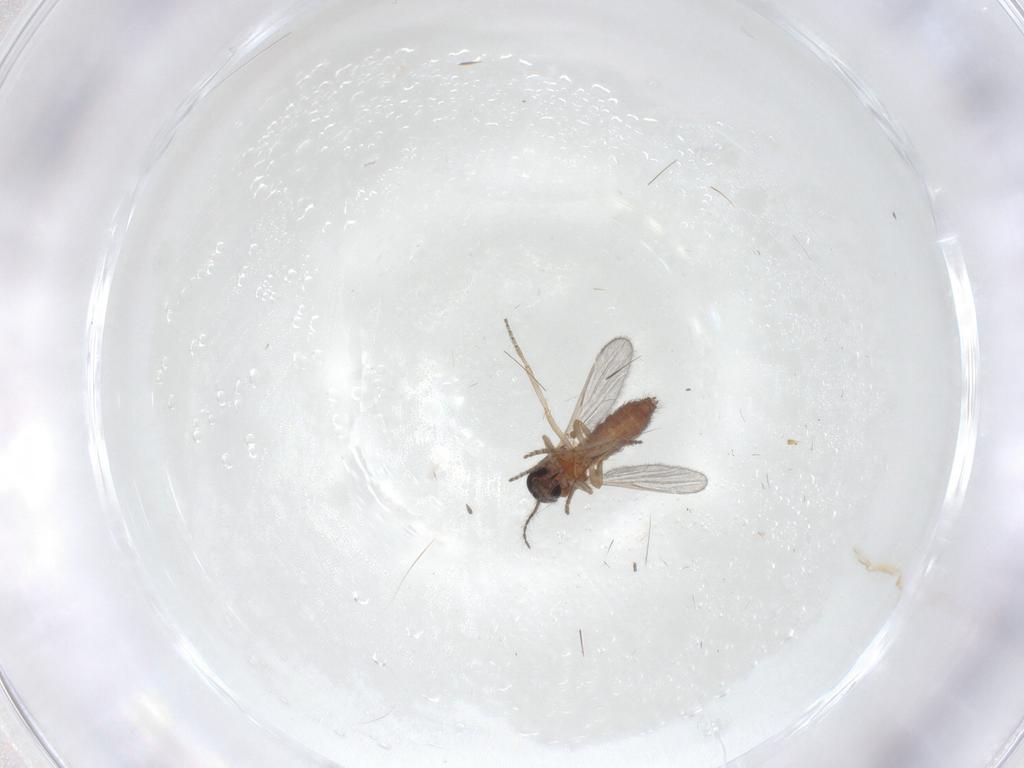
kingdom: Animalia
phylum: Arthropoda
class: Insecta
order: Diptera
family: Ceratopogonidae
